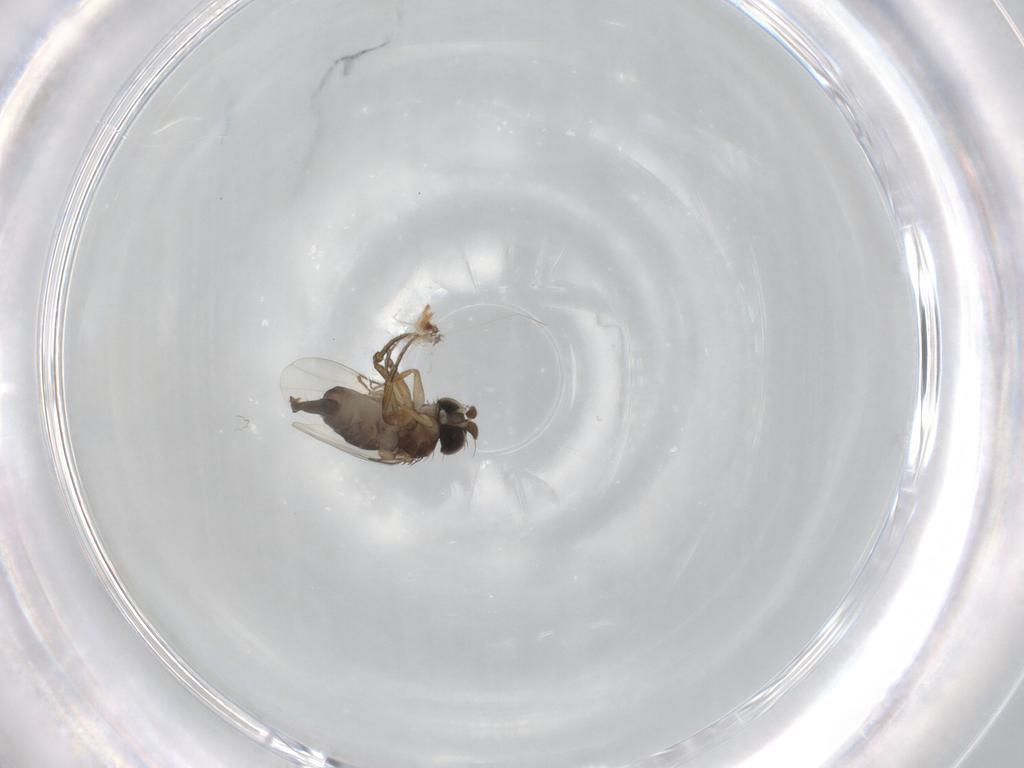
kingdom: Animalia
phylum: Arthropoda
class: Insecta
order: Diptera
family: Phoridae
